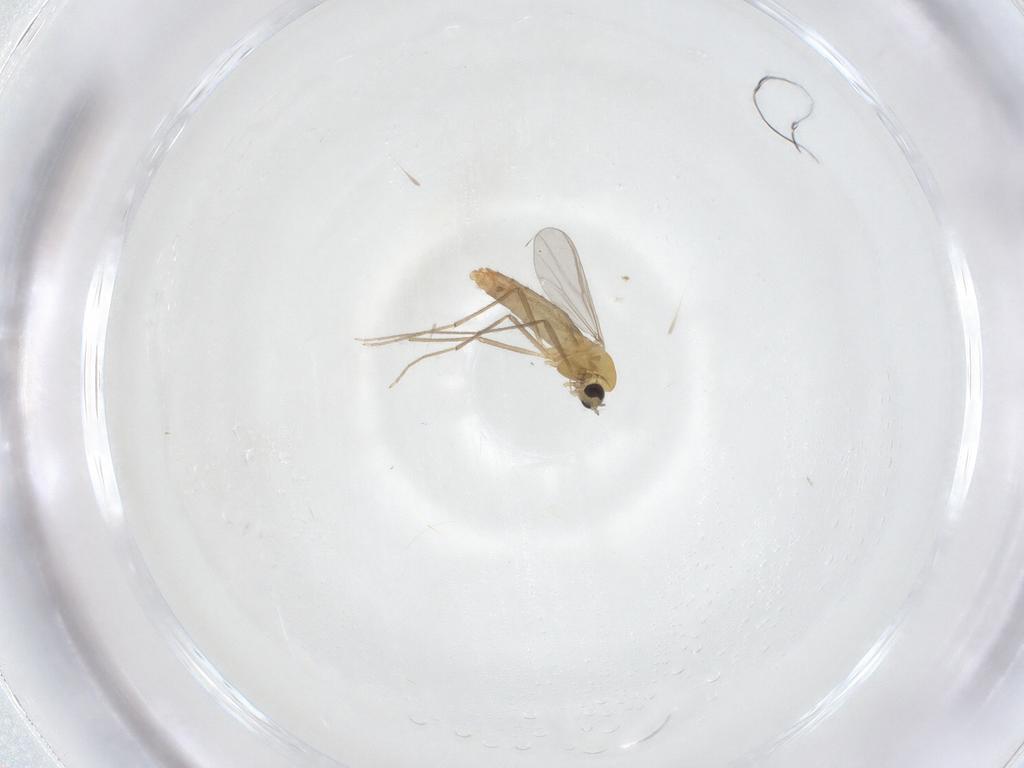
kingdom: Animalia
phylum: Arthropoda
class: Insecta
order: Diptera
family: Chironomidae
